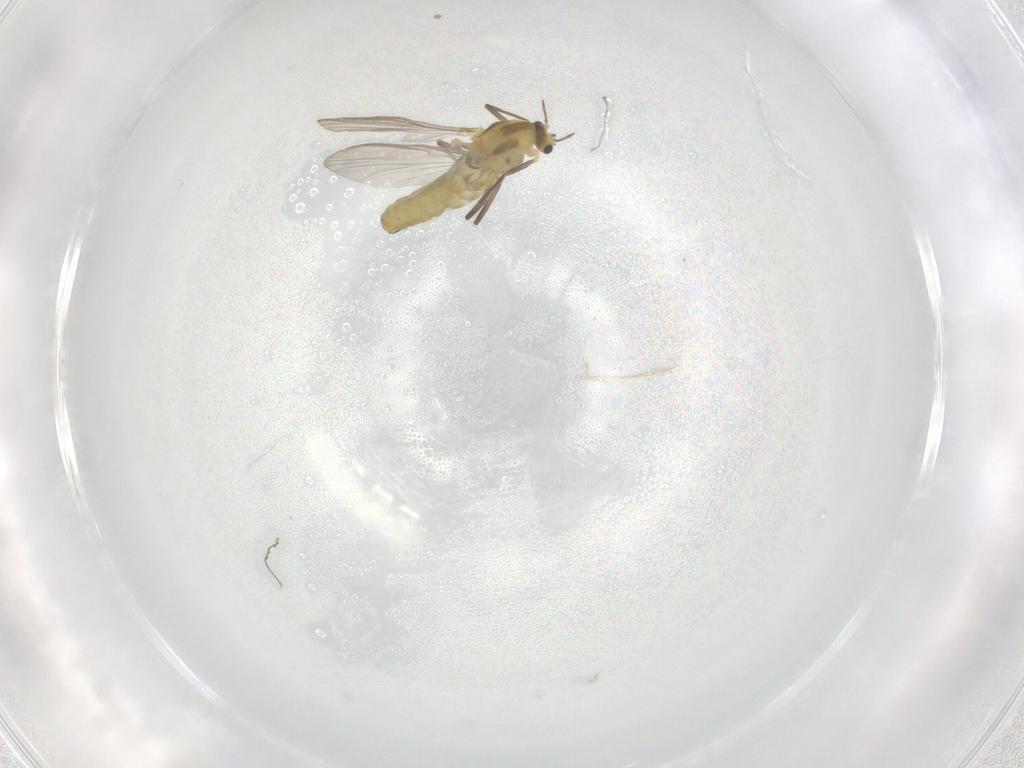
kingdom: Animalia
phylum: Arthropoda
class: Insecta
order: Diptera
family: Chironomidae
